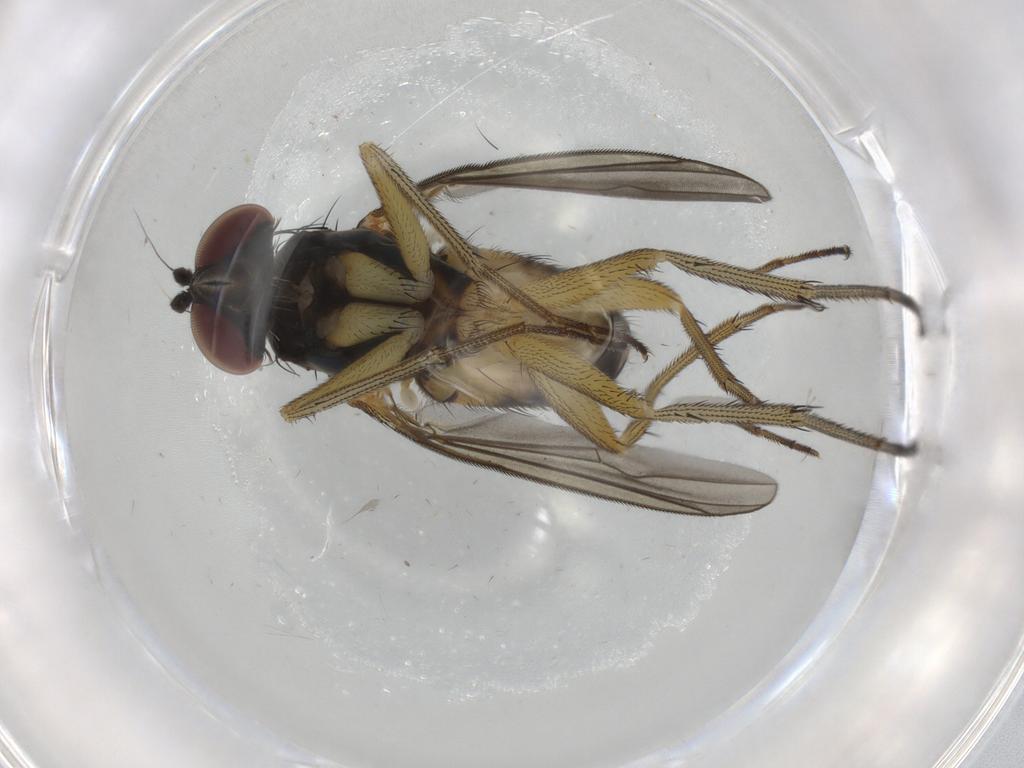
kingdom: Animalia
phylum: Arthropoda
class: Insecta
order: Diptera
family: Dolichopodidae
